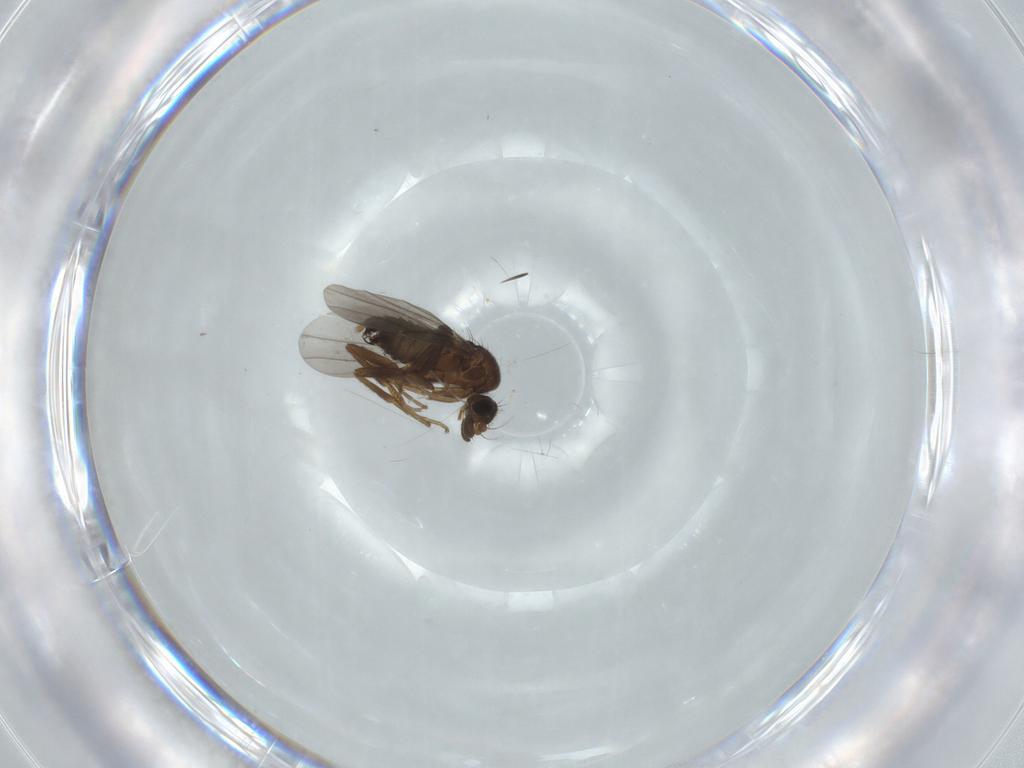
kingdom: Animalia
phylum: Arthropoda
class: Insecta
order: Diptera
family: Phoridae
